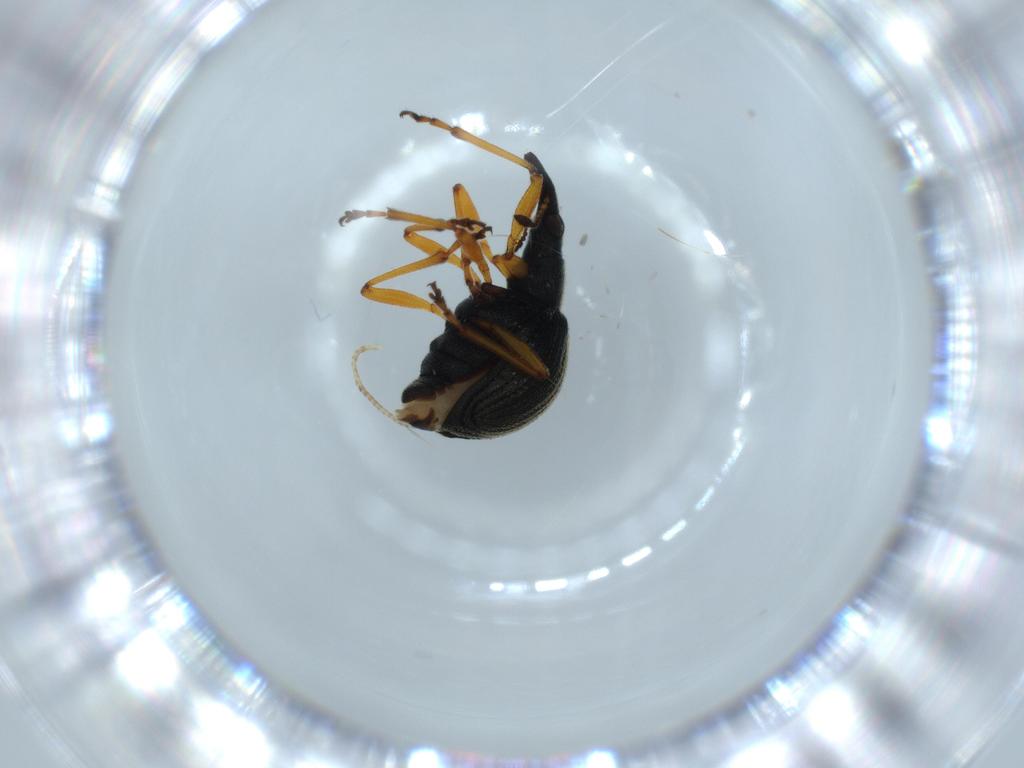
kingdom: Animalia
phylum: Arthropoda
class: Insecta
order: Coleoptera
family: Brentidae
